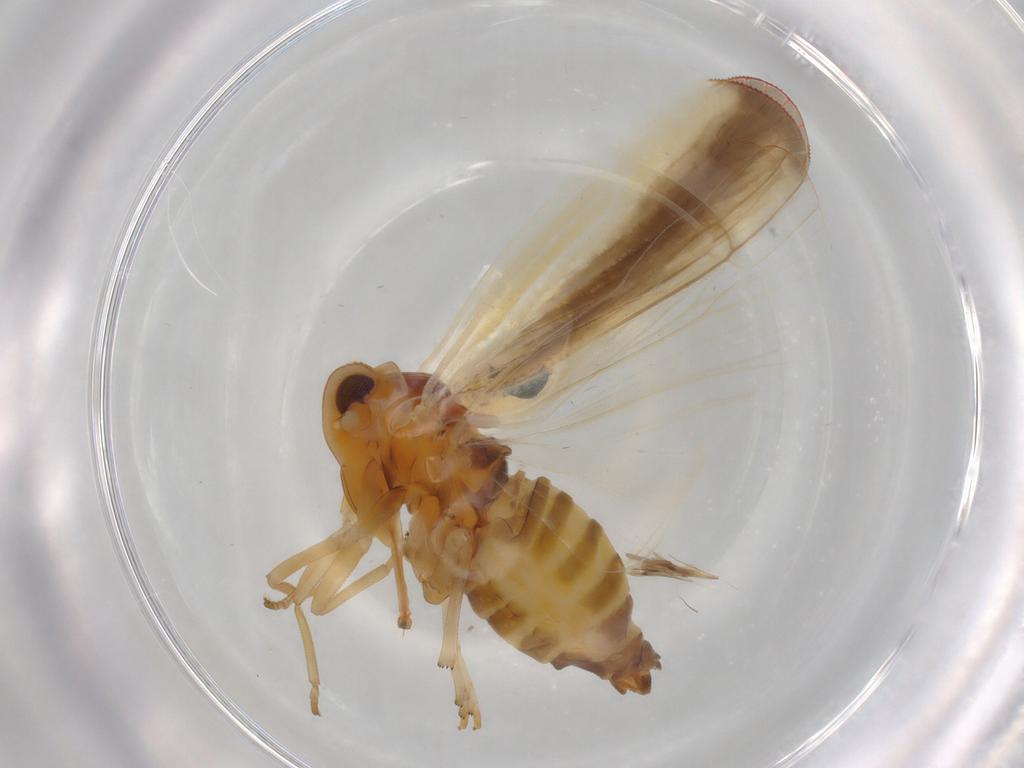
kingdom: Animalia
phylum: Arthropoda
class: Insecta
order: Hemiptera
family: Derbidae
